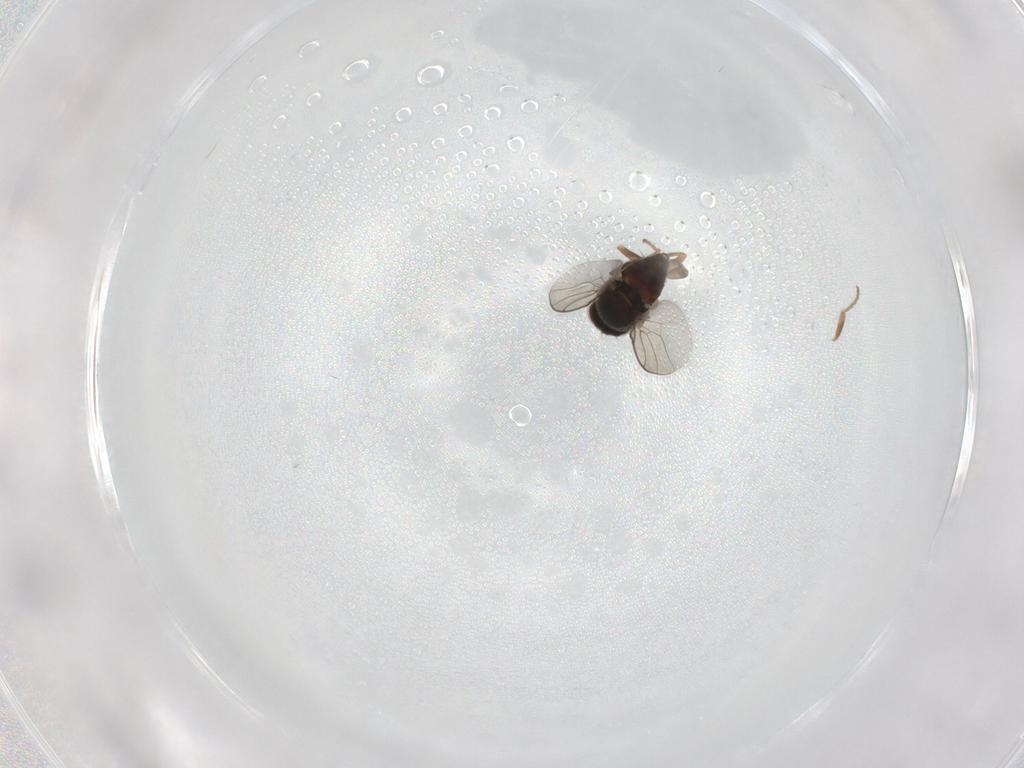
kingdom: Animalia
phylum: Arthropoda
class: Insecta
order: Diptera
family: Chloropidae
